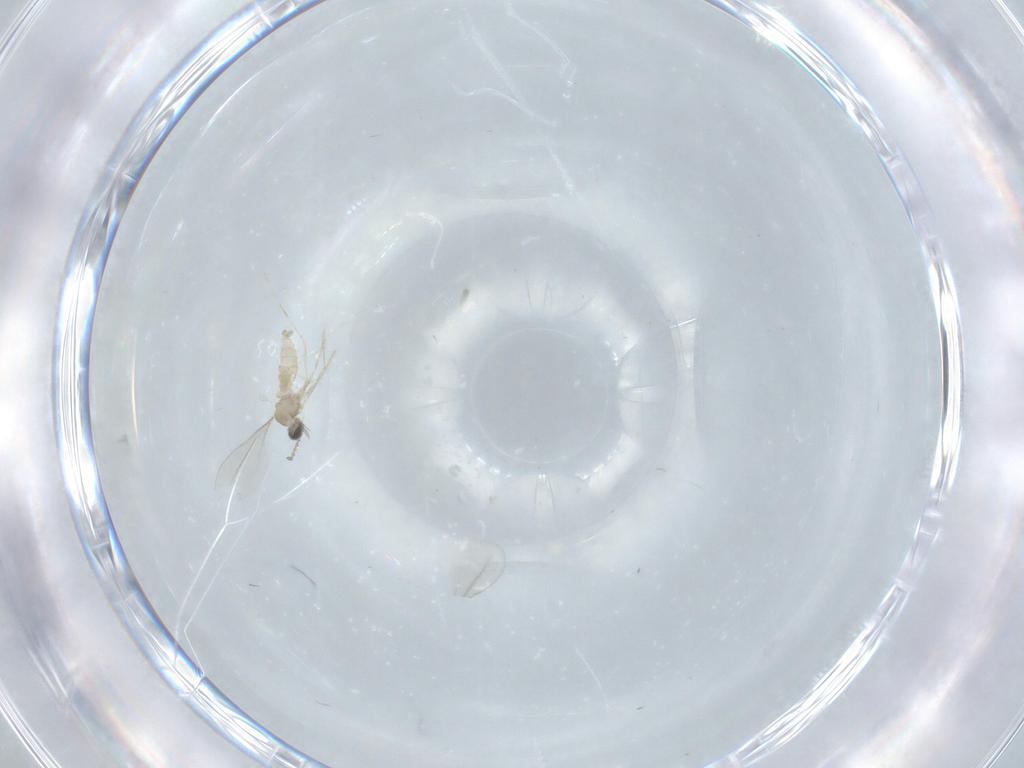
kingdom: Animalia
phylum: Arthropoda
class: Insecta
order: Diptera
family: Cecidomyiidae
